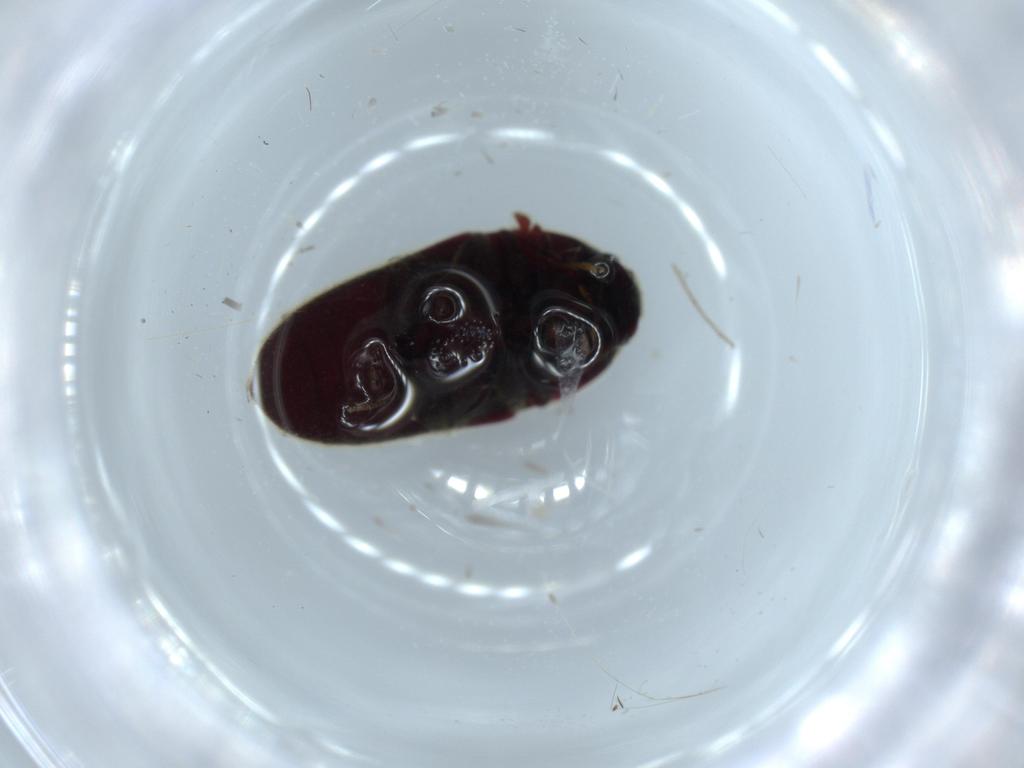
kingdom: Animalia
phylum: Arthropoda
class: Insecta
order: Coleoptera
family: Throscidae
